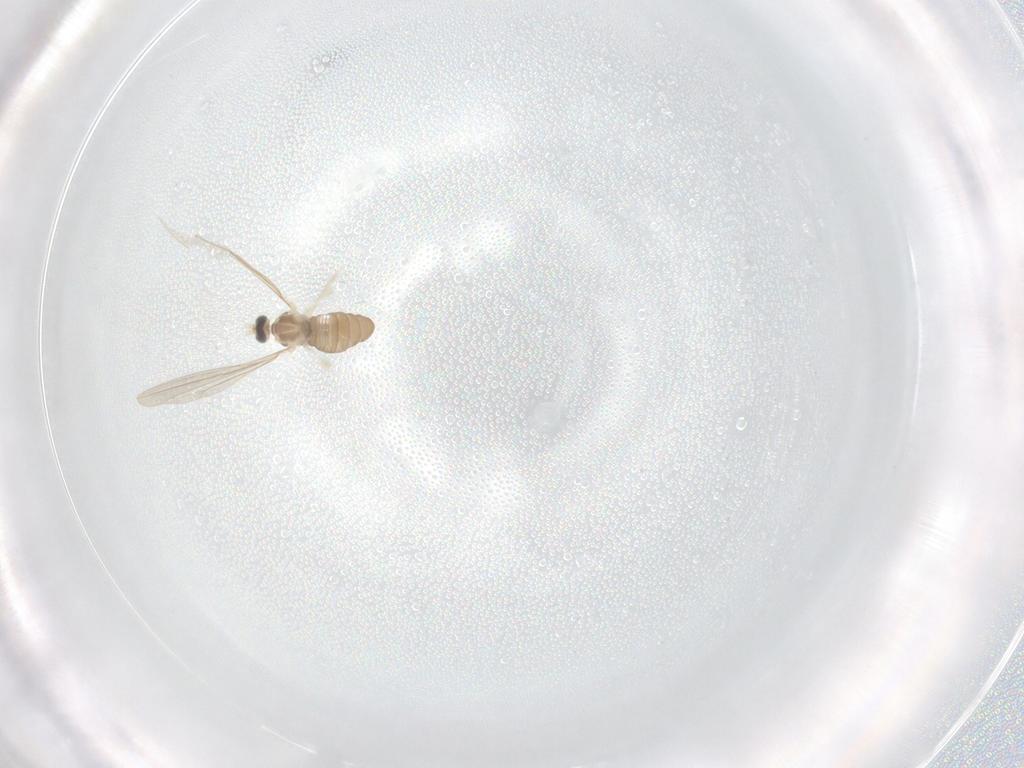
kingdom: Animalia
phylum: Arthropoda
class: Insecta
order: Diptera
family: Cecidomyiidae
